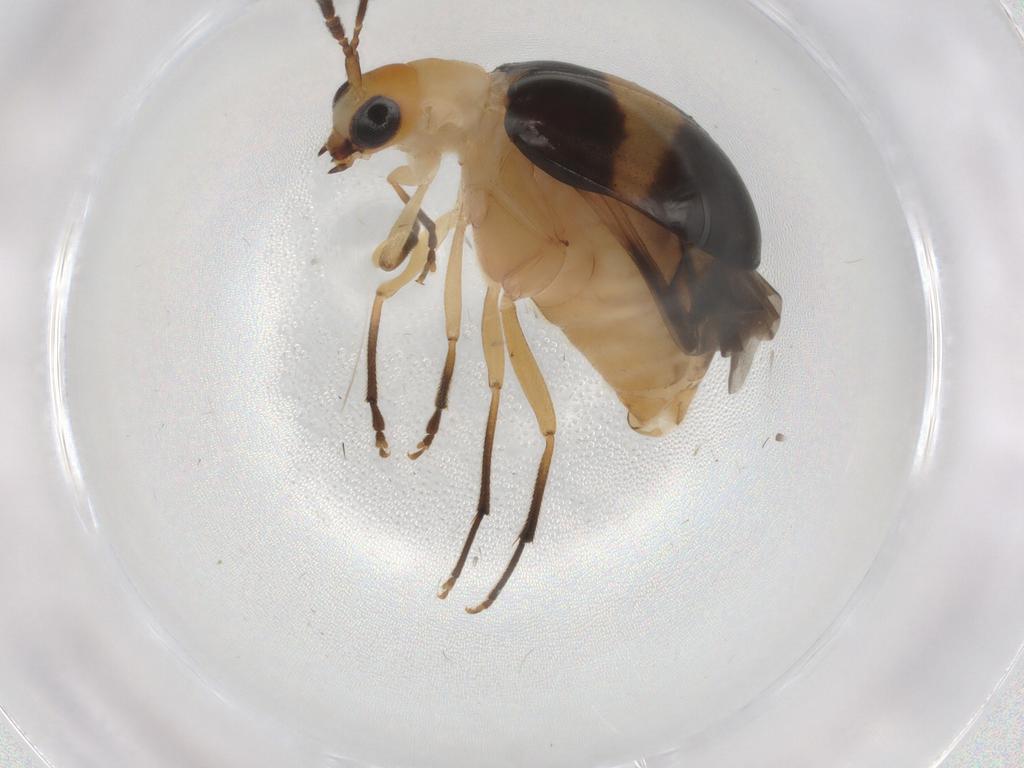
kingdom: Animalia
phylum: Arthropoda
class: Insecta
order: Coleoptera
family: Chrysomelidae
